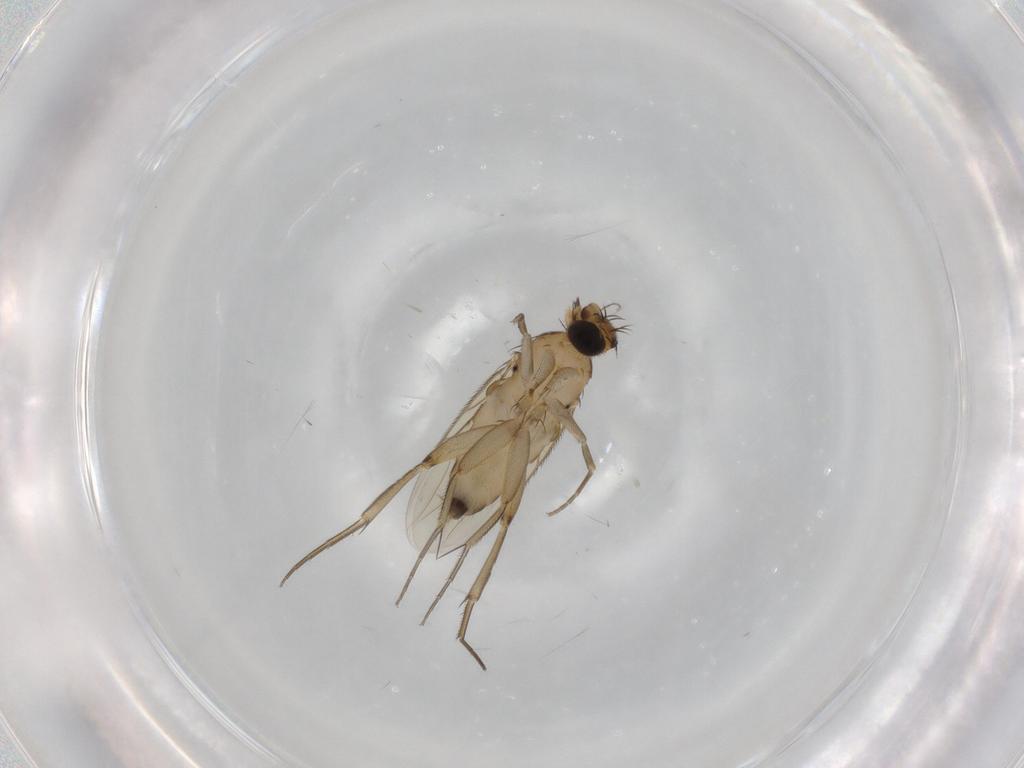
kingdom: Animalia
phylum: Arthropoda
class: Insecta
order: Diptera
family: Phoridae
